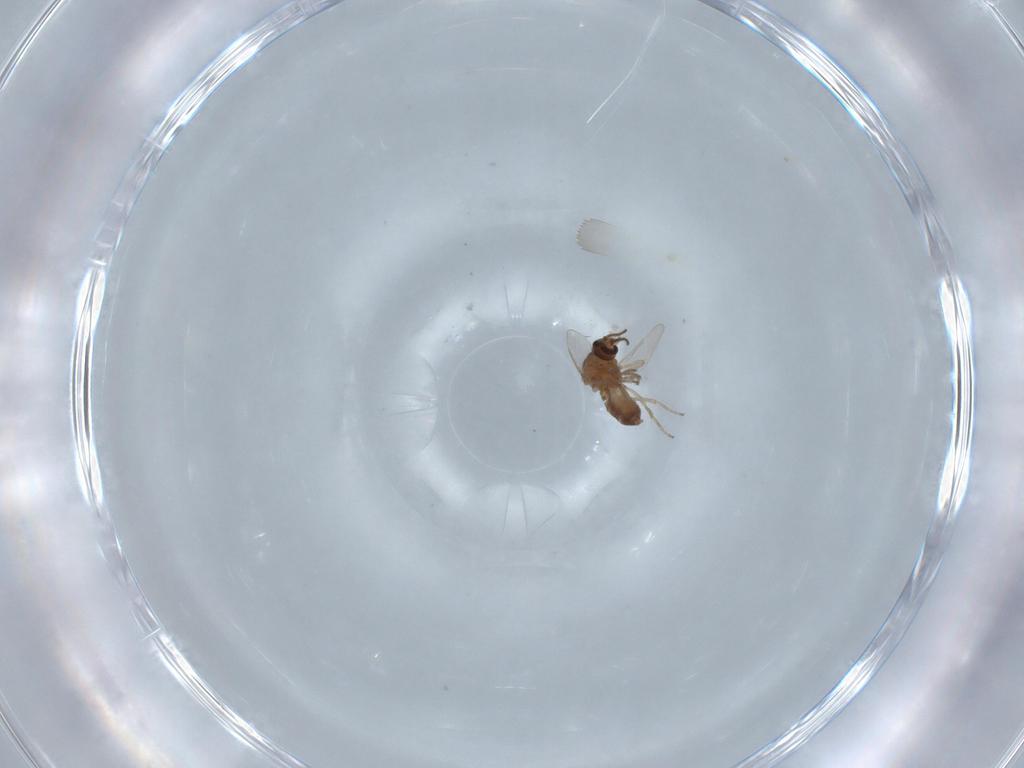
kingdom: Animalia
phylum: Arthropoda
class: Insecta
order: Diptera
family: Ceratopogonidae
